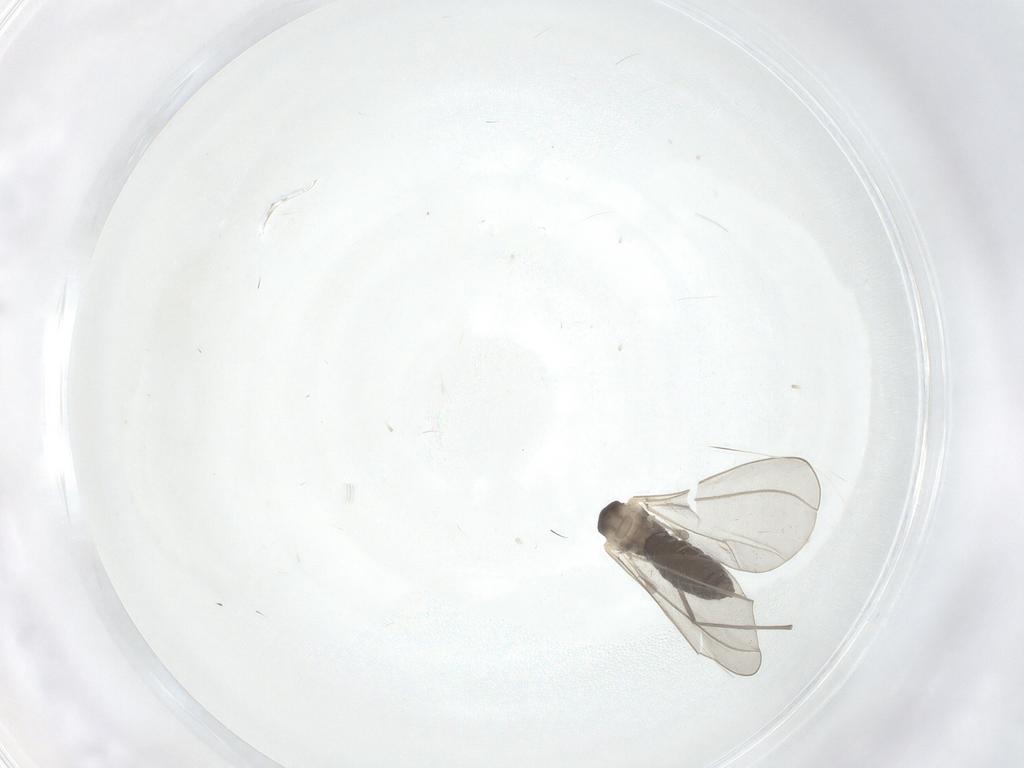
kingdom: Animalia
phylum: Arthropoda
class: Insecta
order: Diptera
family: Cecidomyiidae
